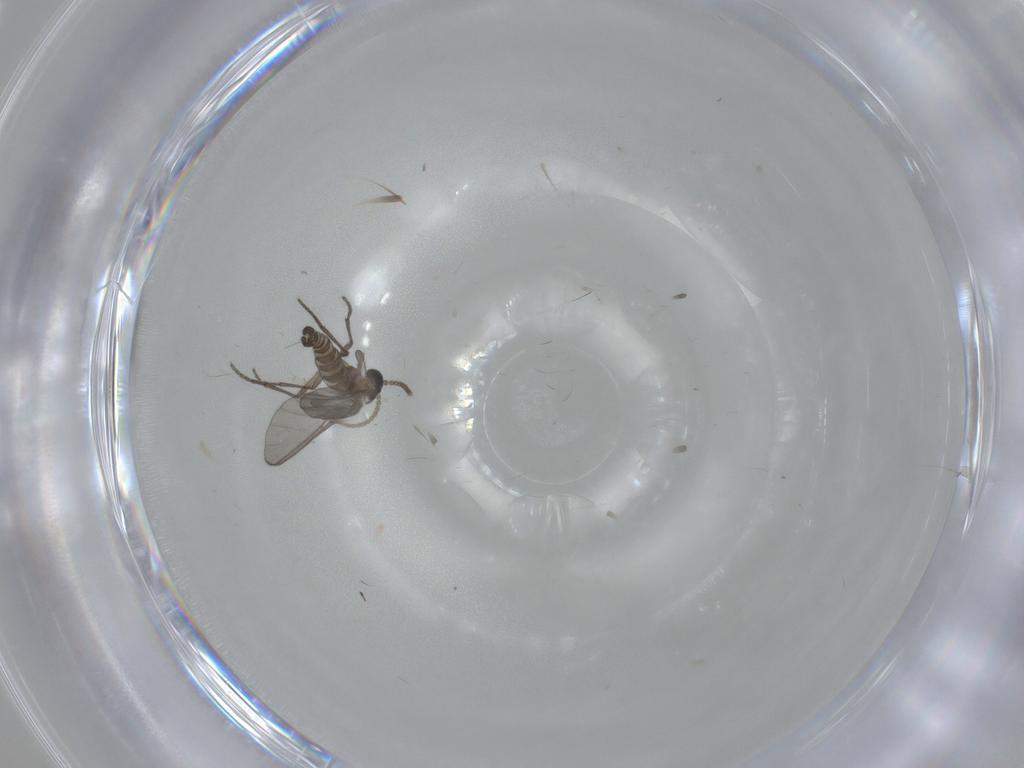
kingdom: Animalia
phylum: Arthropoda
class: Insecta
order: Diptera
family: Sciaridae
